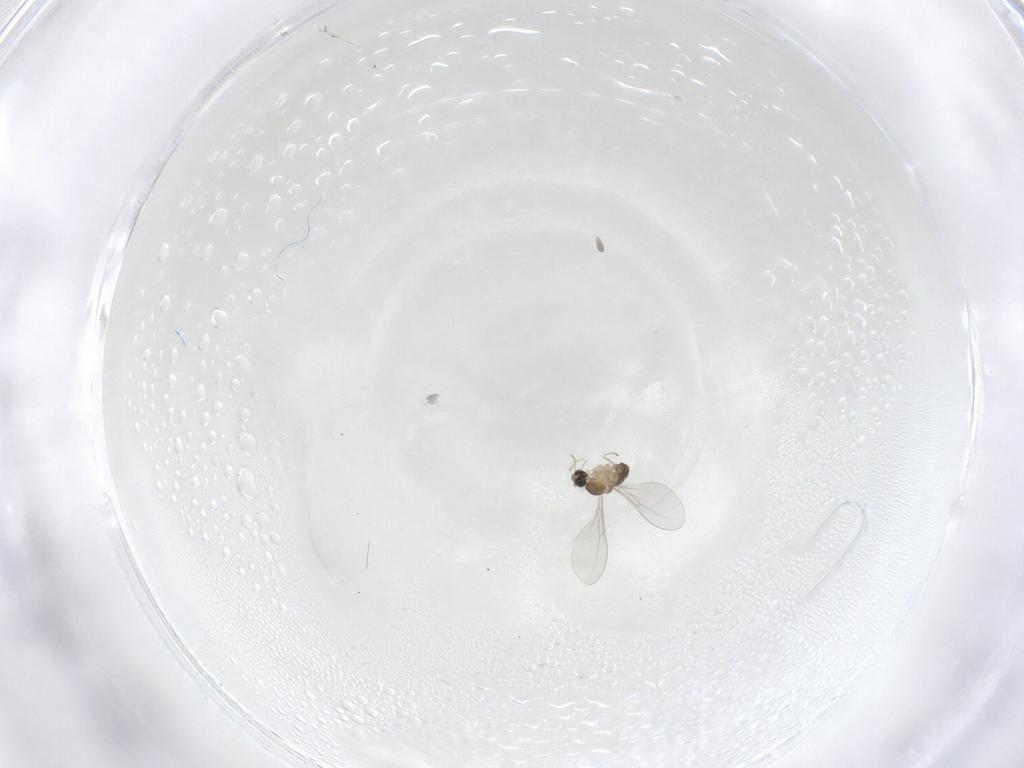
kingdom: Animalia
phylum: Arthropoda
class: Insecta
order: Diptera
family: Cecidomyiidae
